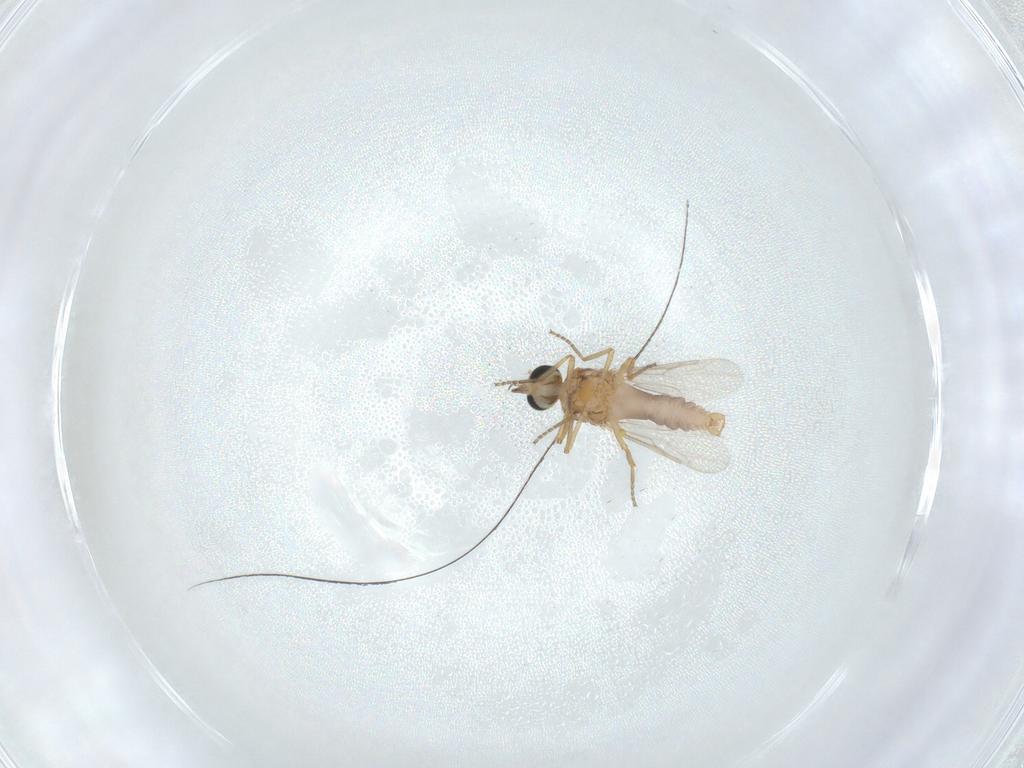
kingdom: Animalia
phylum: Arthropoda
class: Insecta
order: Diptera
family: Ceratopogonidae
